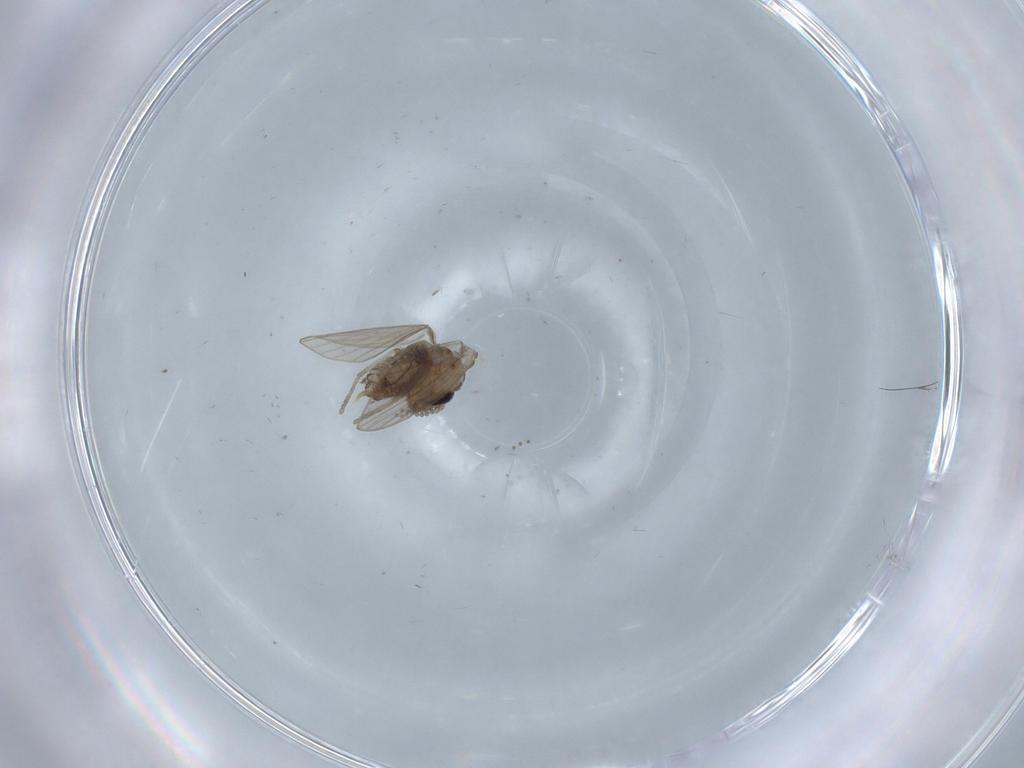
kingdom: Animalia
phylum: Arthropoda
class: Insecta
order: Diptera
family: Psychodidae
